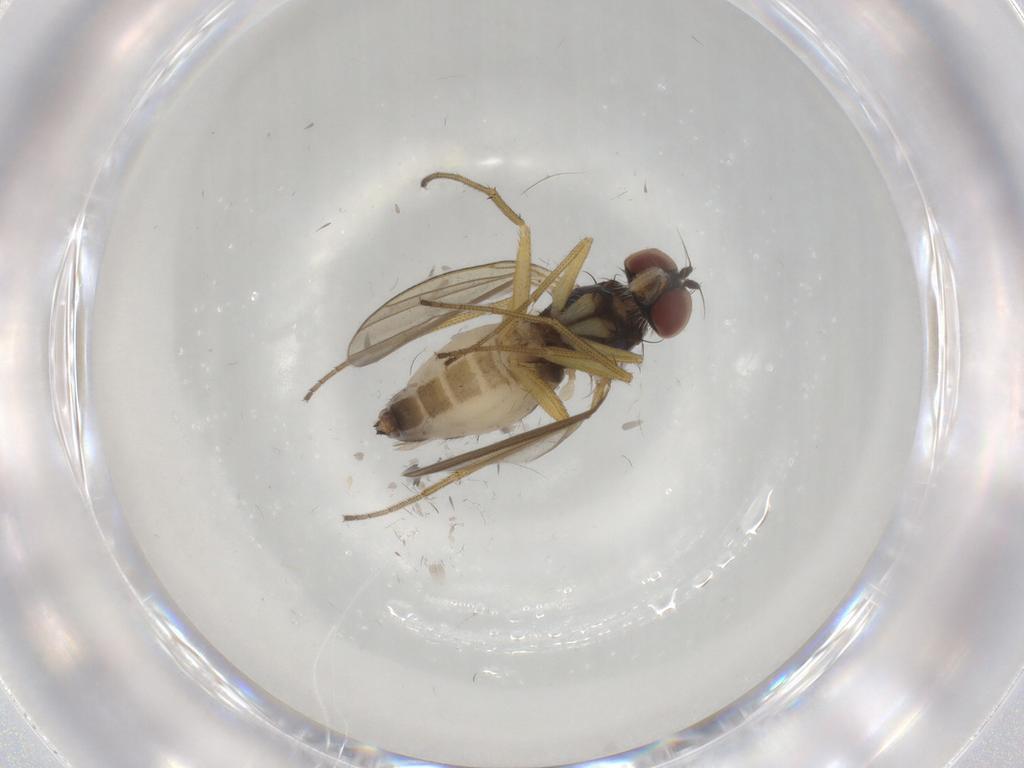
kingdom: Animalia
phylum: Arthropoda
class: Insecta
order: Diptera
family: Dolichopodidae
